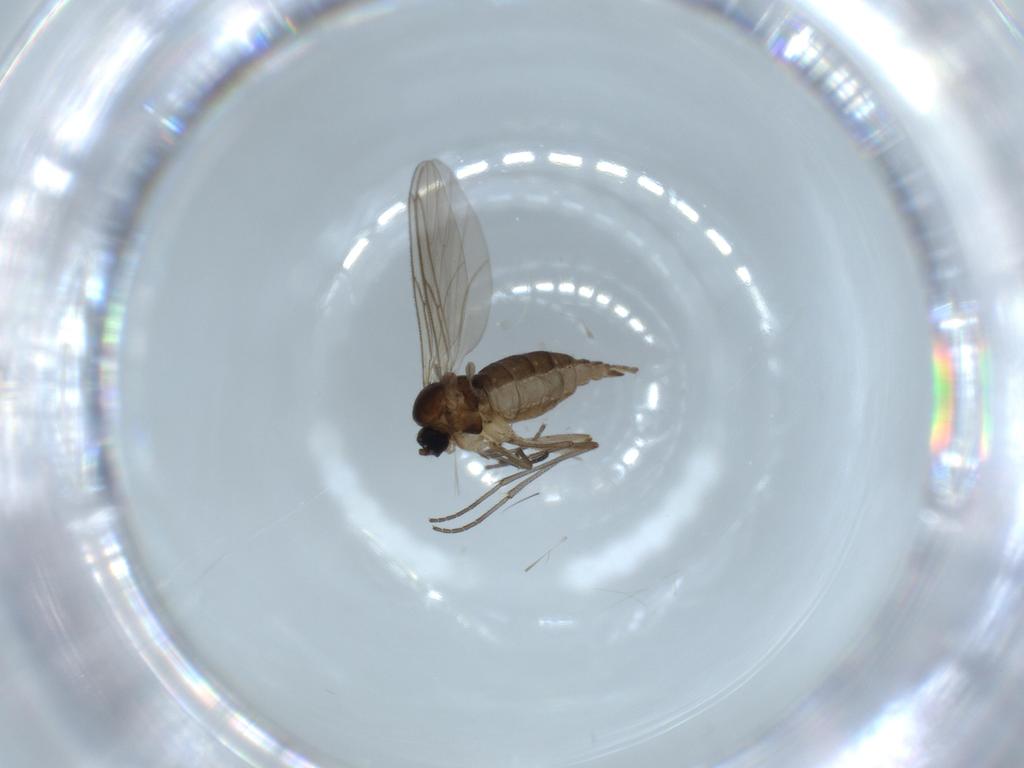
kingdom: Animalia
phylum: Arthropoda
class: Insecta
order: Diptera
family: Sciaridae
